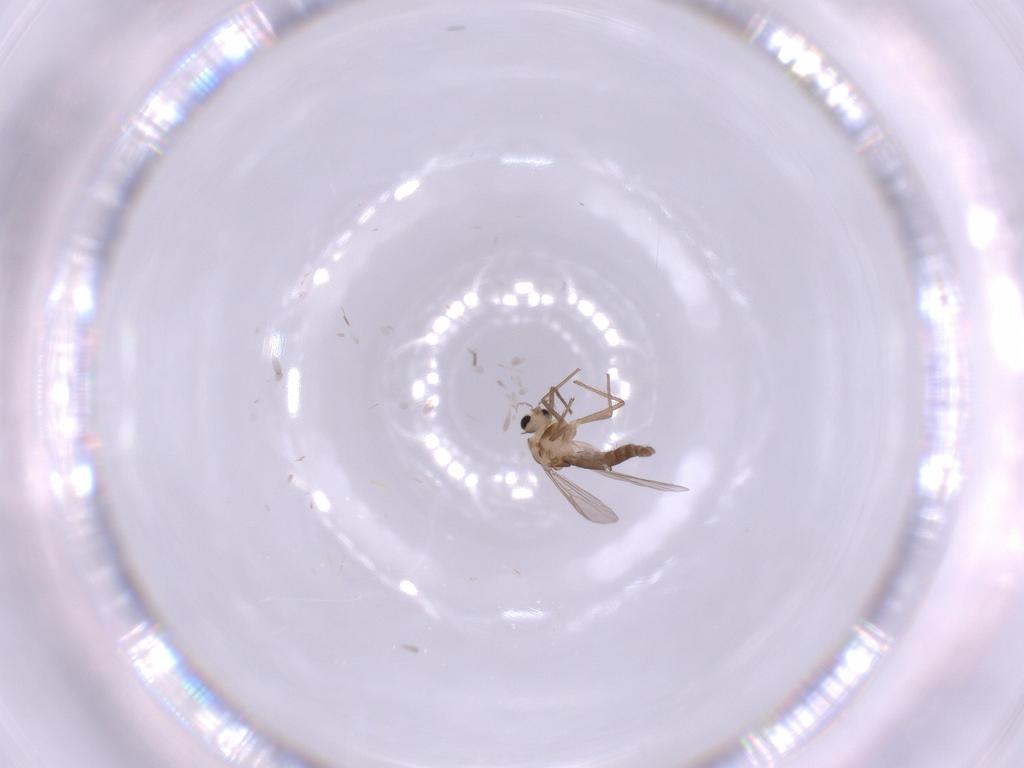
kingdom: Animalia
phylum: Arthropoda
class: Insecta
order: Diptera
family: Chironomidae
